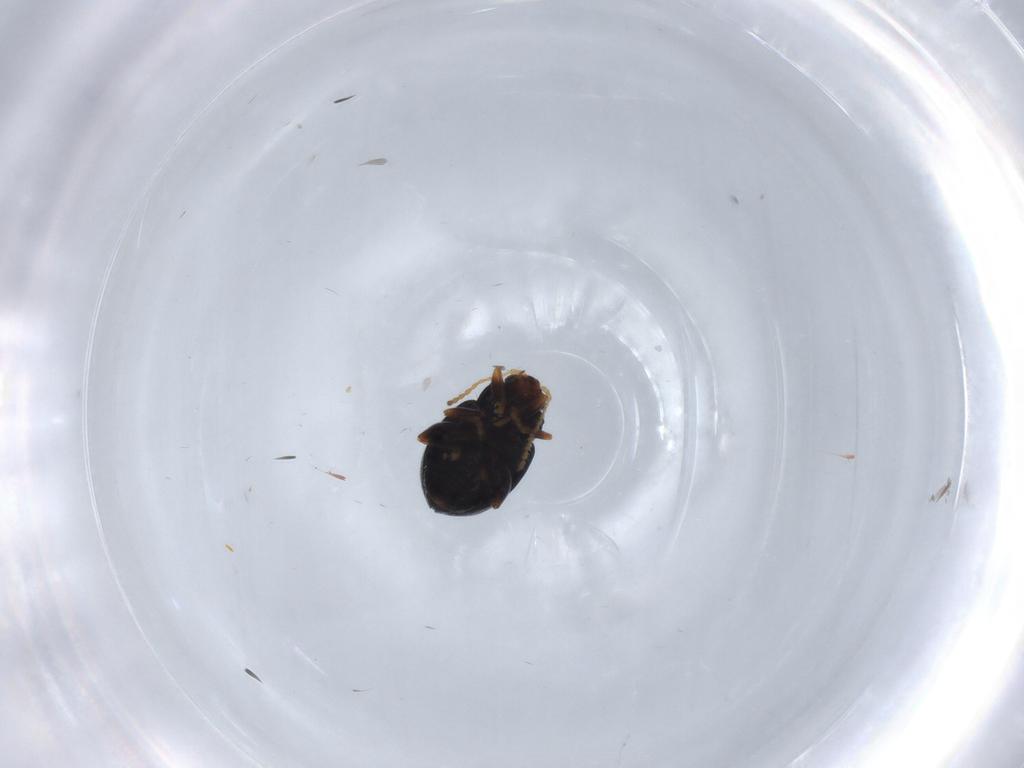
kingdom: Animalia
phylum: Arthropoda
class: Insecta
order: Coleoptera
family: Chrysomelidae
